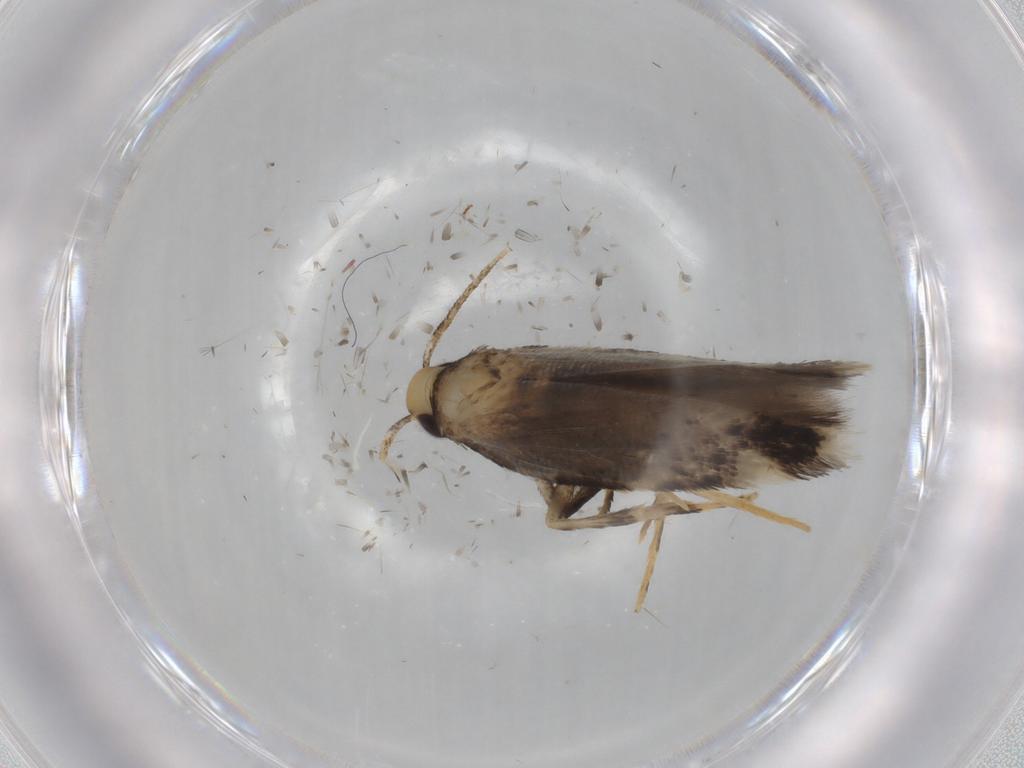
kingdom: Animalia
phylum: Arthropoda
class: Insecta
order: Lepidoptera
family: Cosmopterigidae
